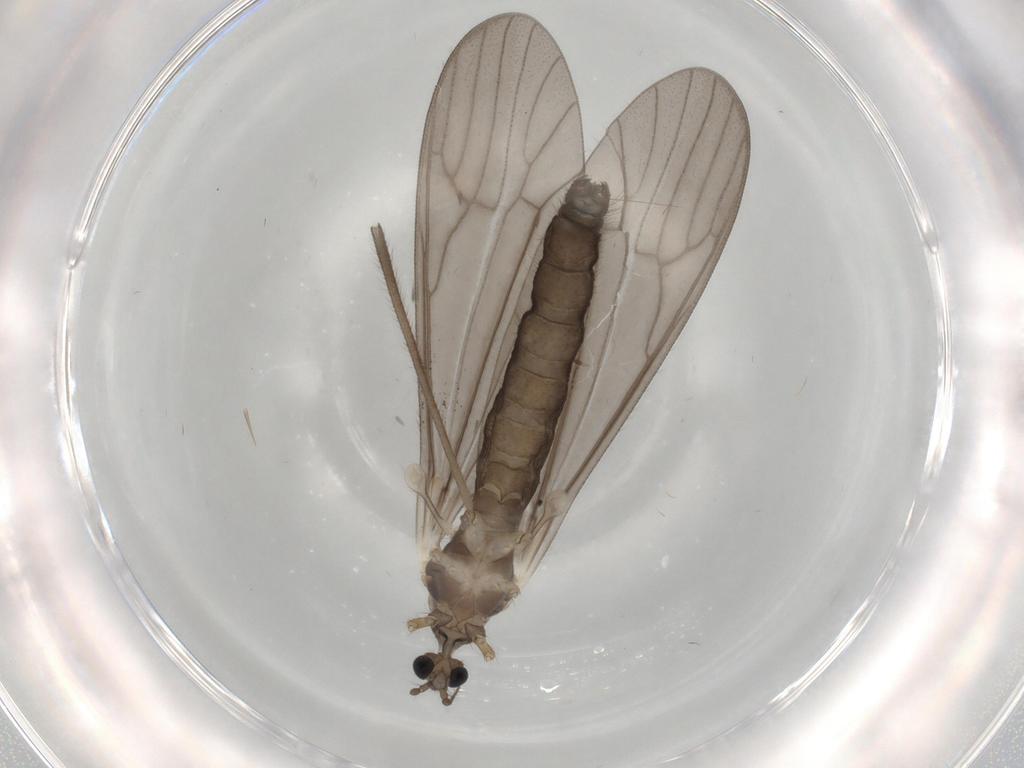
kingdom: Animalia
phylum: Arthropoda
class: Insecta
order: Diptera
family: Limoniidae
